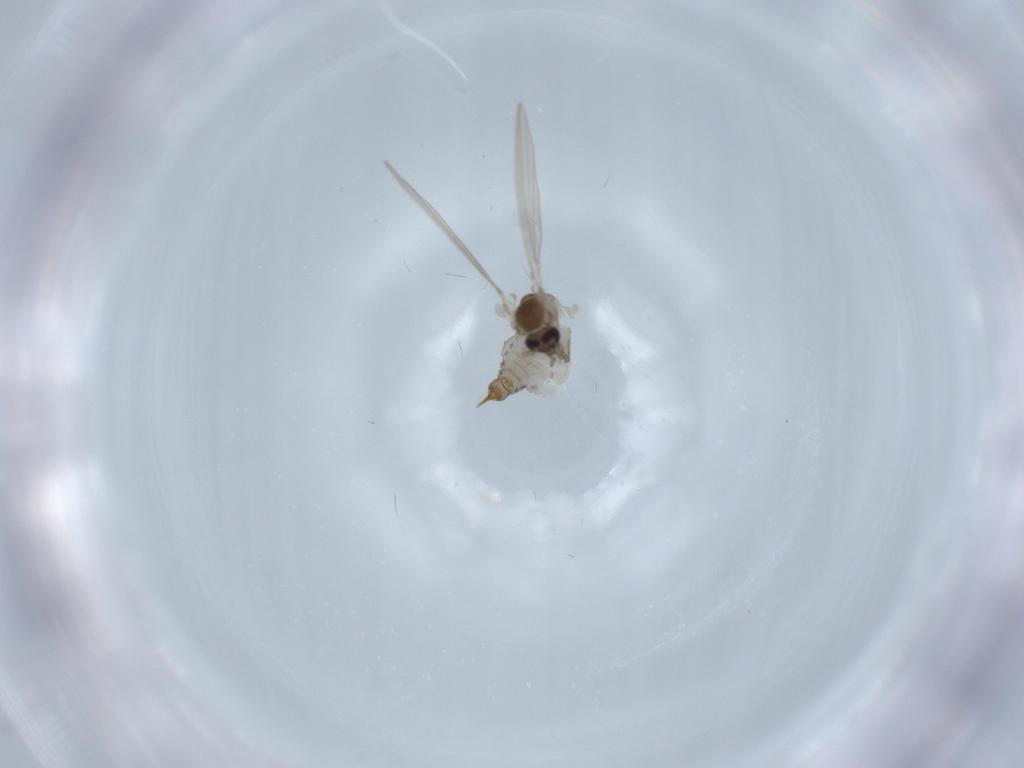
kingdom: Animalia
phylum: Arthropoda
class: Insecta
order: Diptera
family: Psychodidae
